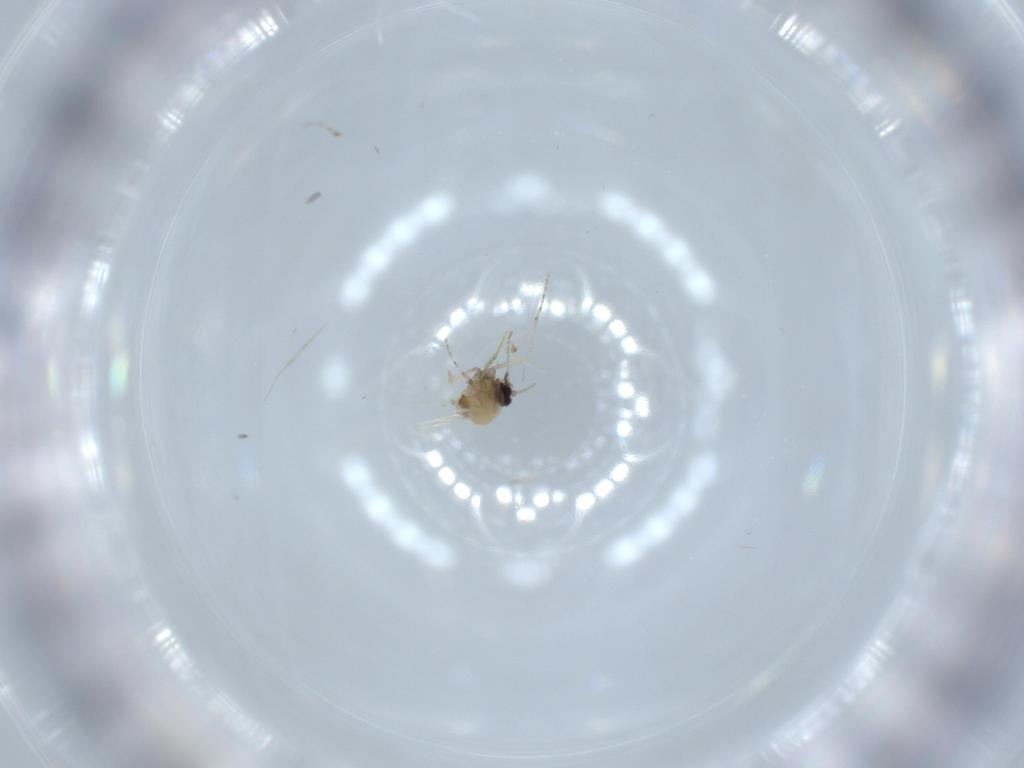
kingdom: Animalia
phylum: Arthropoda
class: Insecta
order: Diptera
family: Ceratopogonidae
